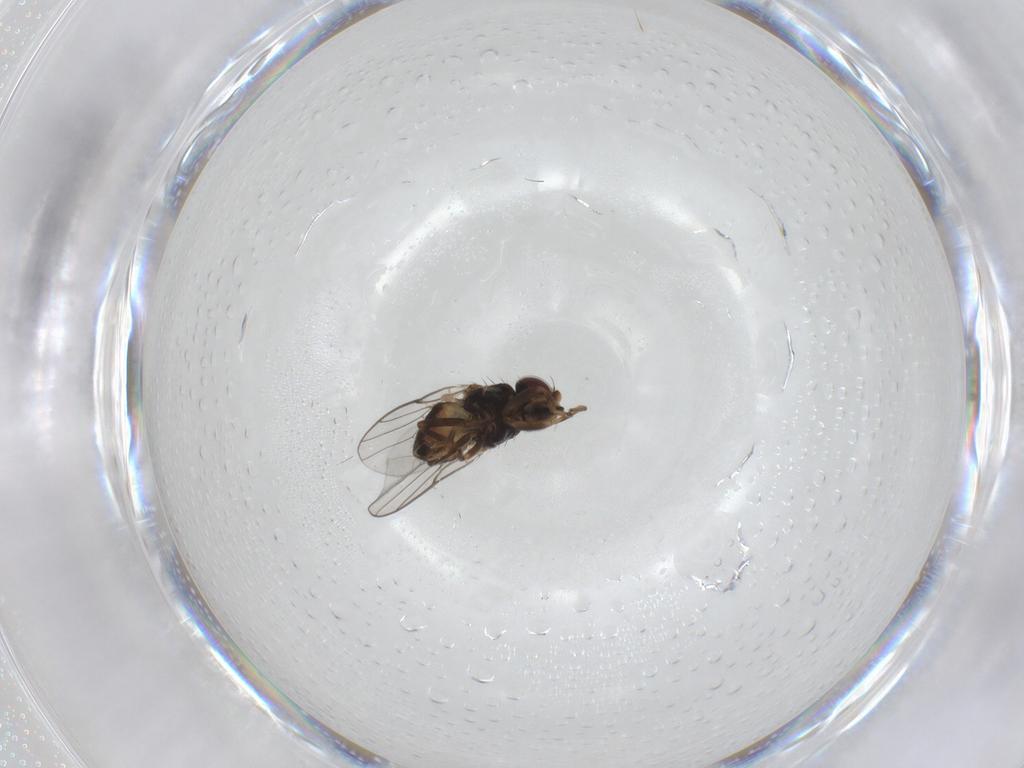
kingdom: Animalia
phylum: Arthropoda
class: Insecta
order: Diptera
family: Chloropidae
